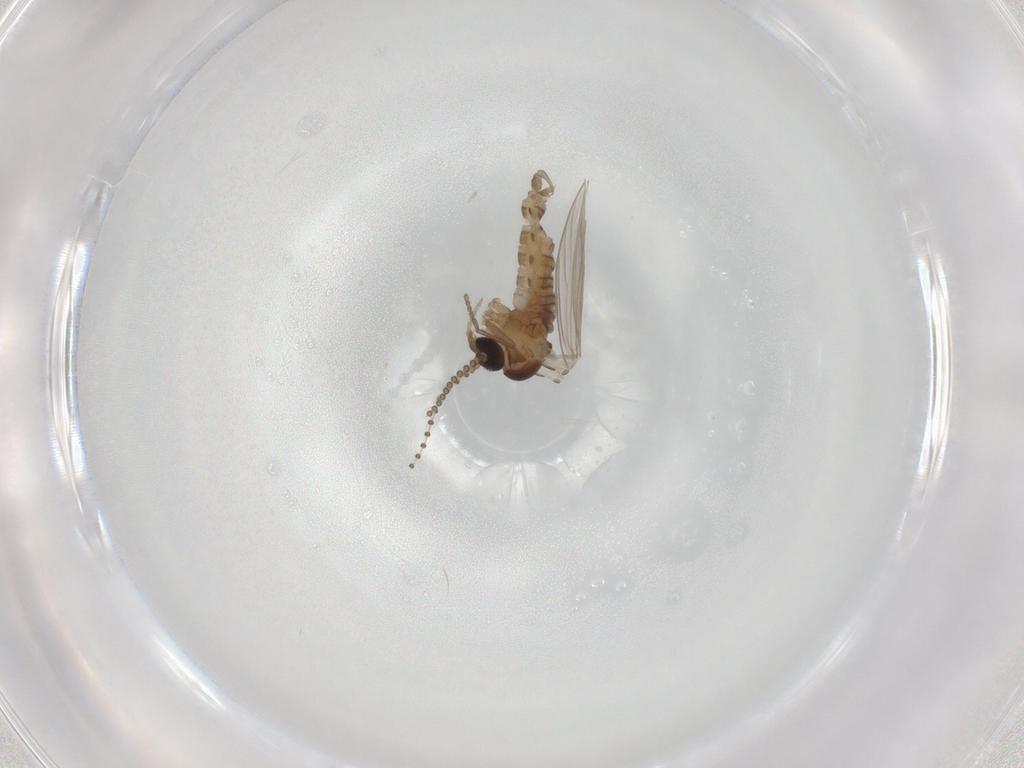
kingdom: Animalia
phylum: Arthropoda
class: Insecta
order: Diptera
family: Psychodidae
